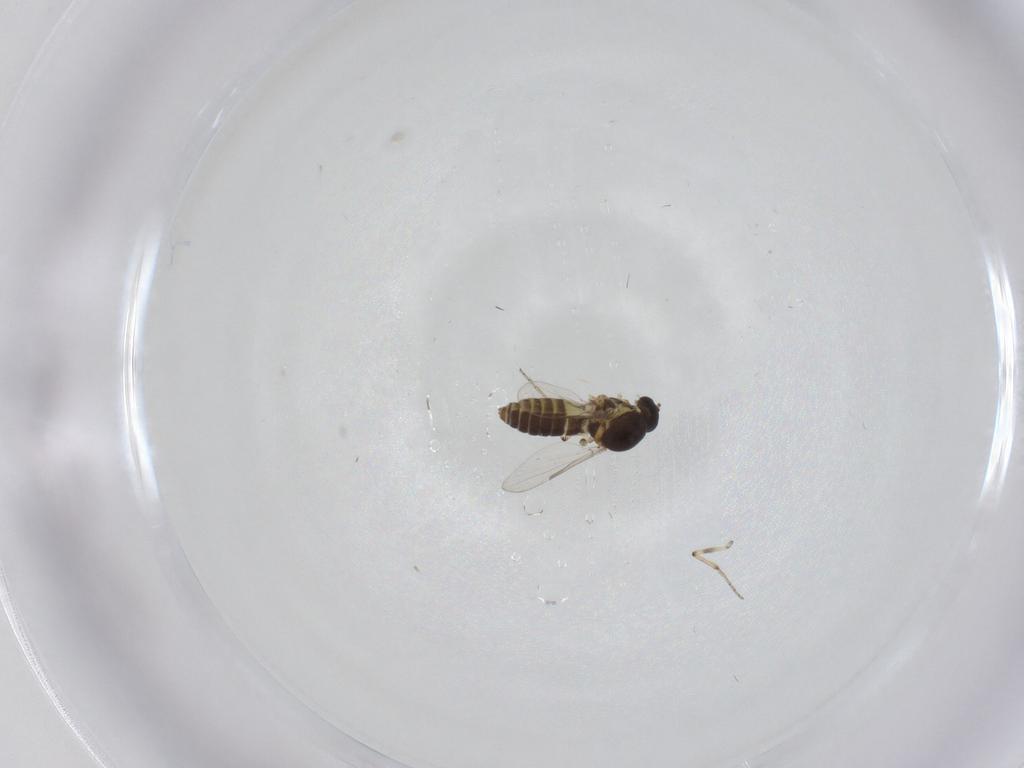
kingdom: Animalia
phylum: Arthropoda
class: Insecta
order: Diptera
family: Ceratopogonidae
